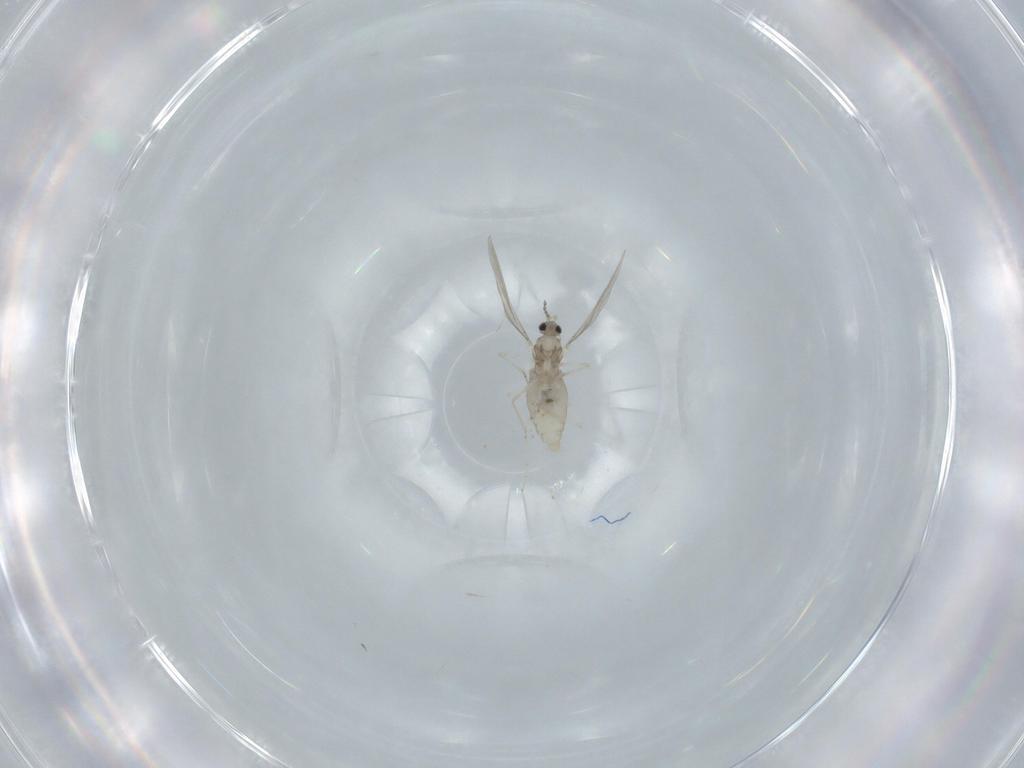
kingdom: Animalia
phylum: Arthropoda
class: Insecta
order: Diptera
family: Cecidomyiidae
